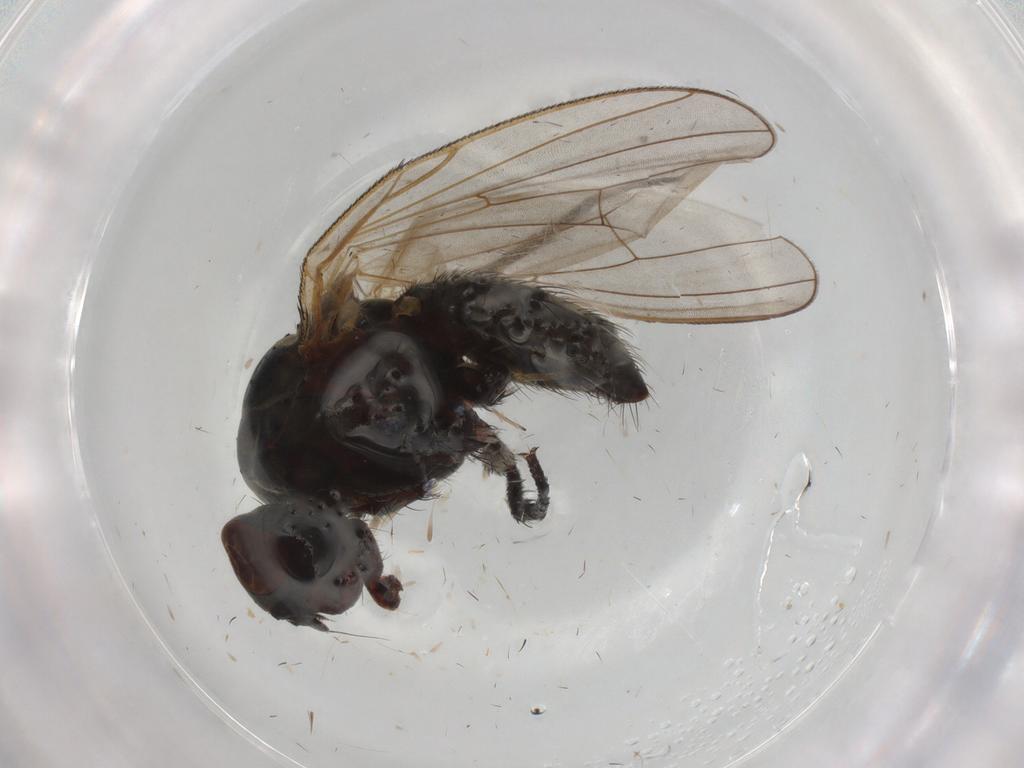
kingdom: Animalia
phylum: Arthropoda
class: Insecta
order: Diptera
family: Anthomyiidae
